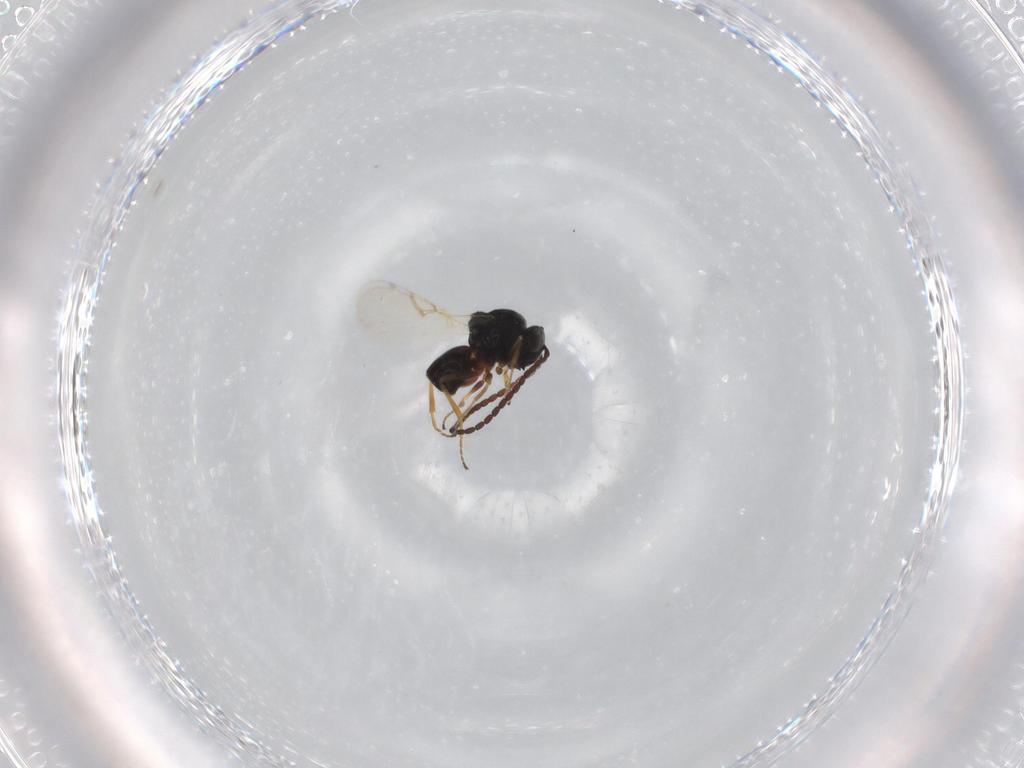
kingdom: Animalia
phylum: Arthropoda
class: Insecta
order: Hymenoptera
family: Figitidae
